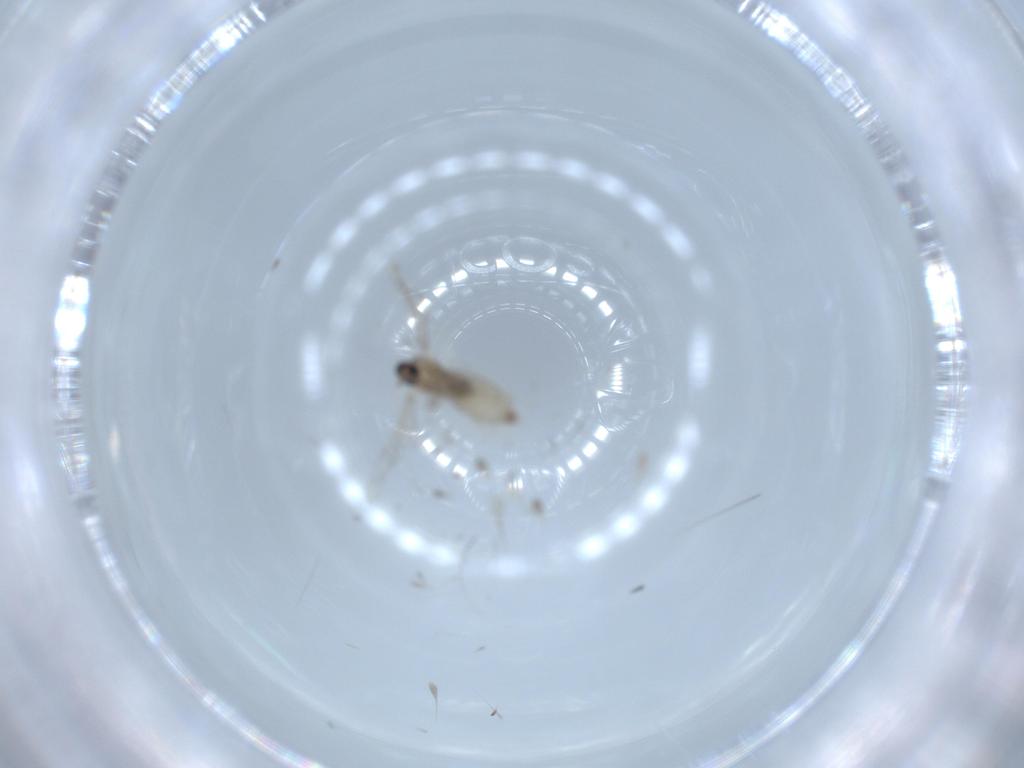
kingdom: Animalia
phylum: Arthropoda
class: Insecta
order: Diptera
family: Cecidomyiidae
